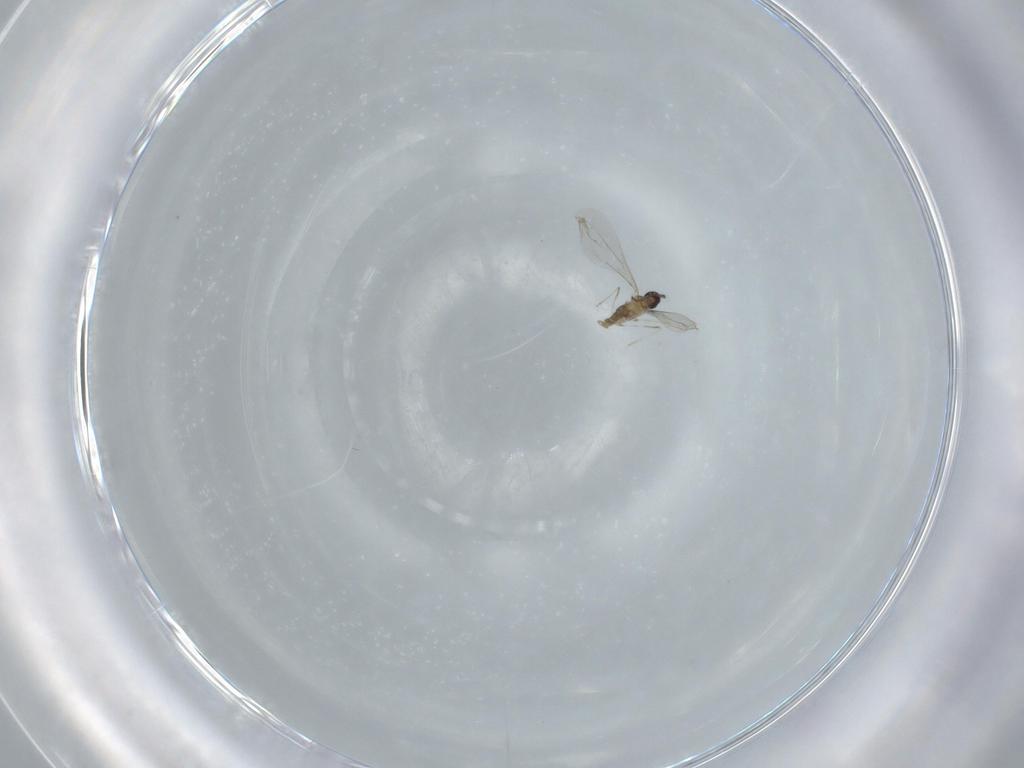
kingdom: Animalia
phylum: Arthropoda
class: Insecta
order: Diptera
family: Cecidomyiidae
